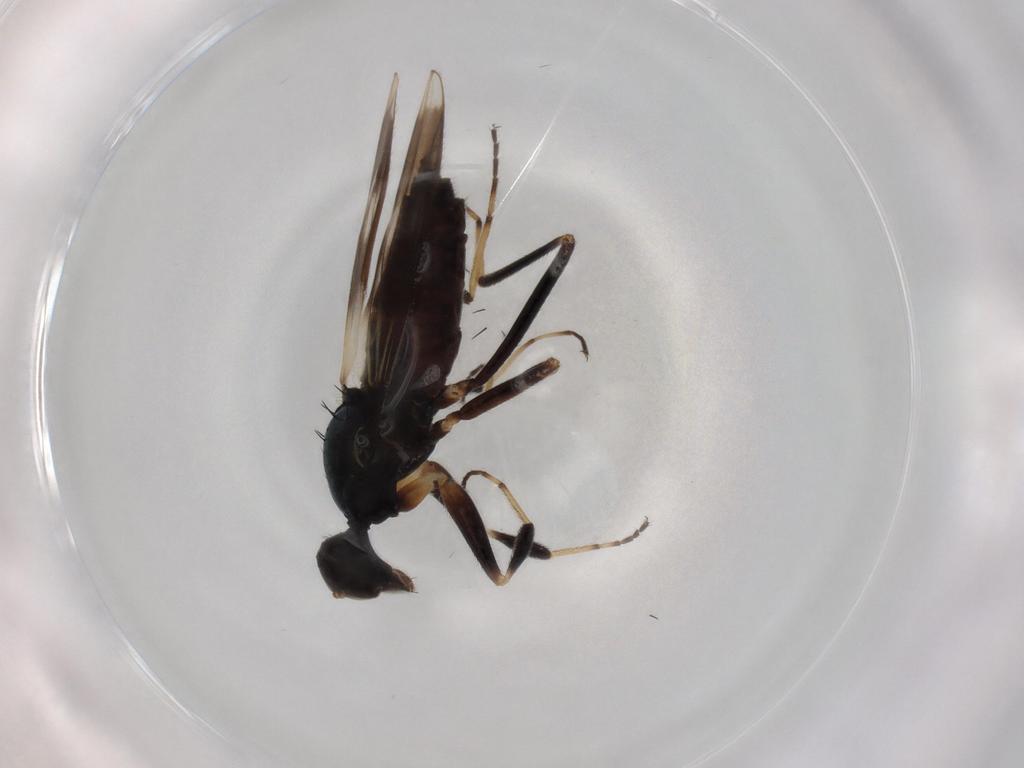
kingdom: Animalia
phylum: Arthropoda
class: Insecta
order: Diptera
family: Hybotidae
